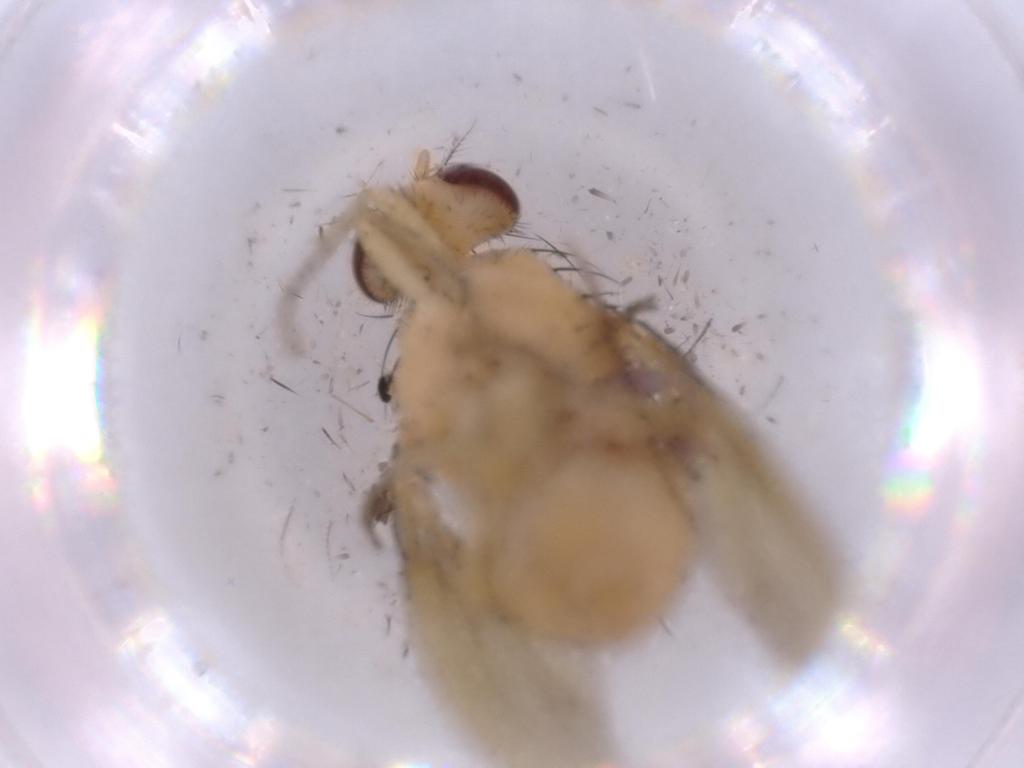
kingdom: Animalia
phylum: Arthropoda
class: Insecta
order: Diptera
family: Cecidomyiidae
